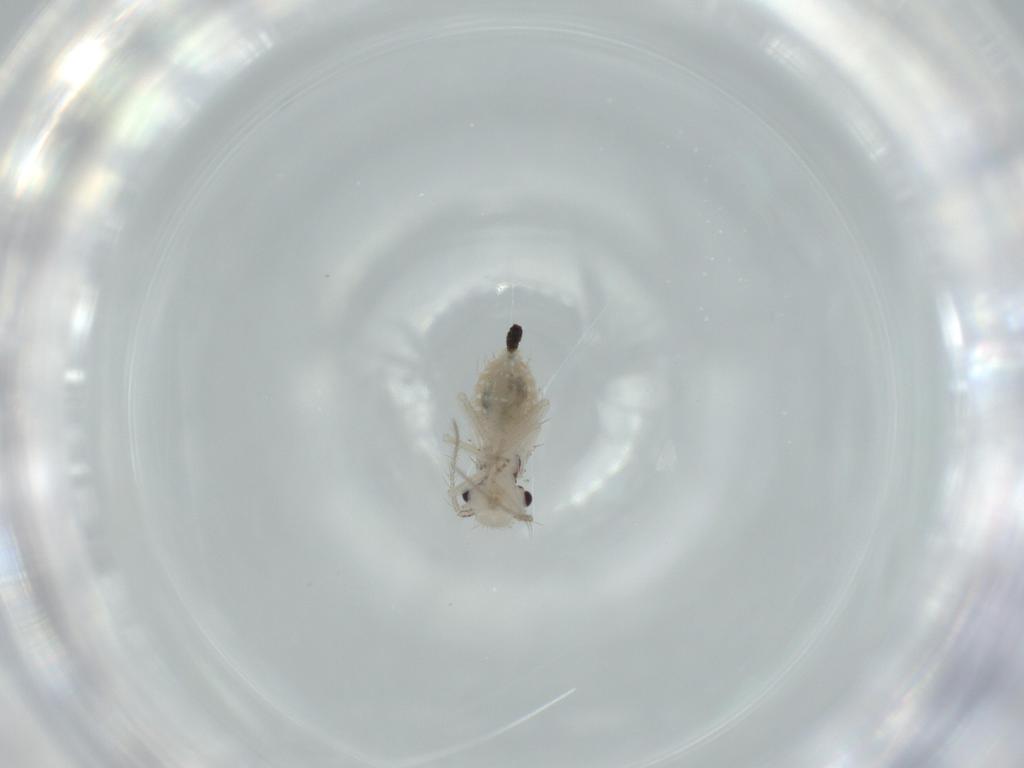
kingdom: Animalia
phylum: Arthropoda
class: Insecta
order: Psocodea
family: Pseudocaeciliidae
